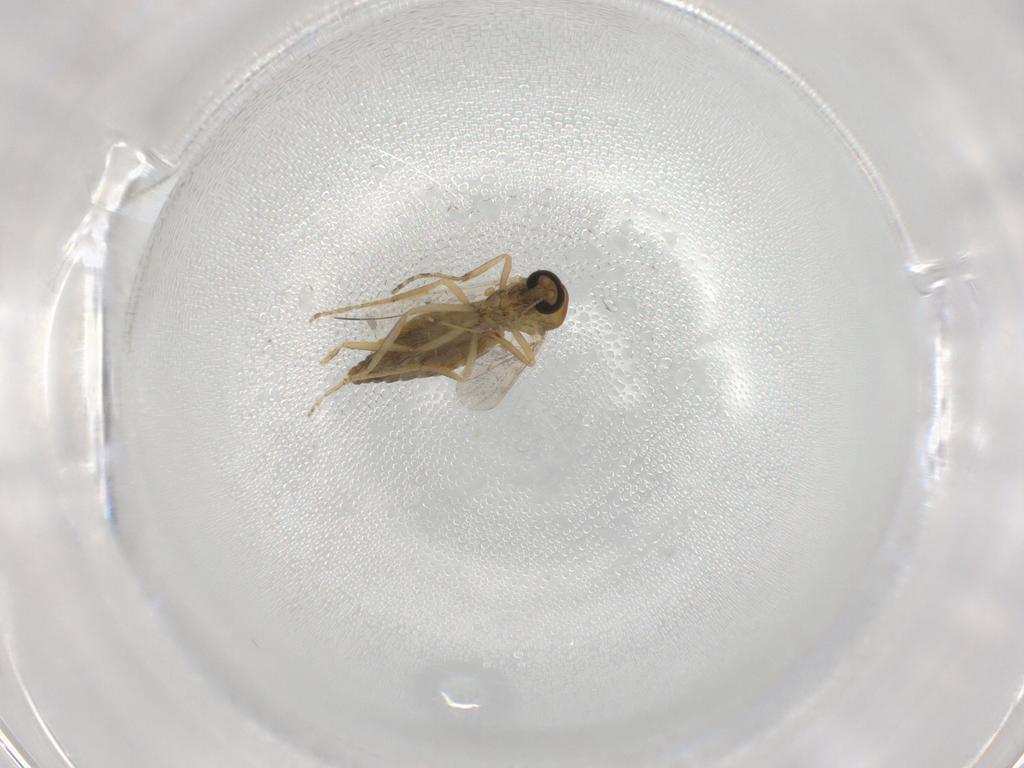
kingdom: Animalia
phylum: Arthropoda
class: Insecta
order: Diptera
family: Ceratopogonidae
